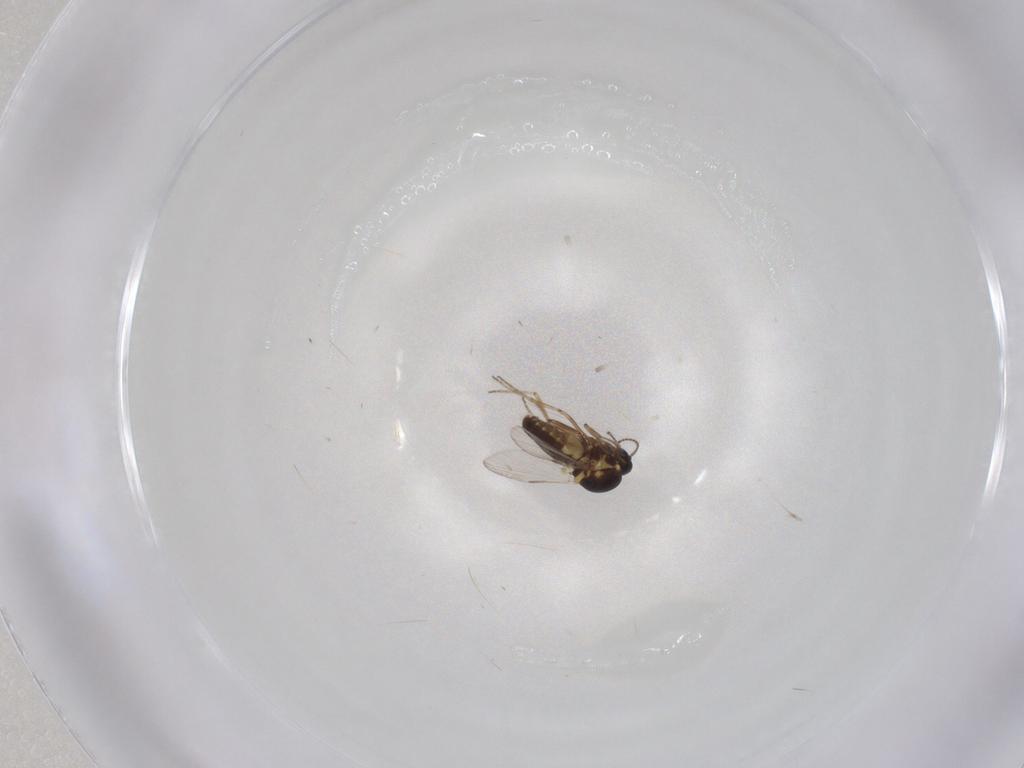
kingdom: Animalia
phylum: Arthropoda
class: Insecta
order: Diptera
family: Ceratopogonidae
